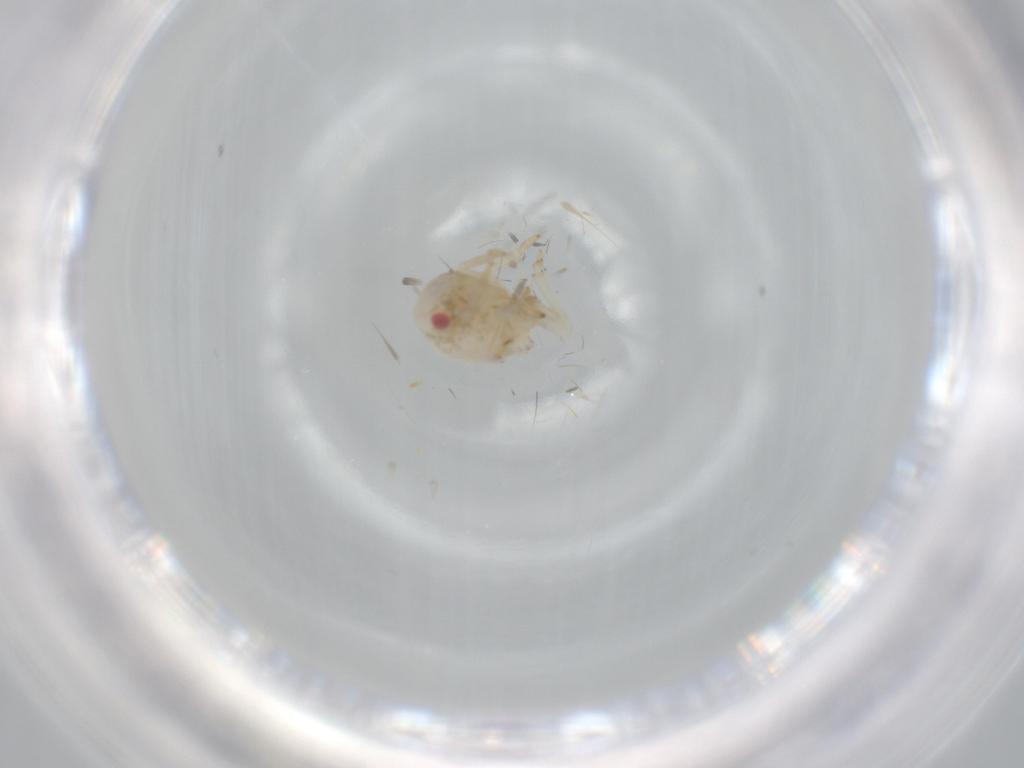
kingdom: Animalia
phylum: Arthropoda
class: Insecta
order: Hemiptera
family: Acanaloniidae
